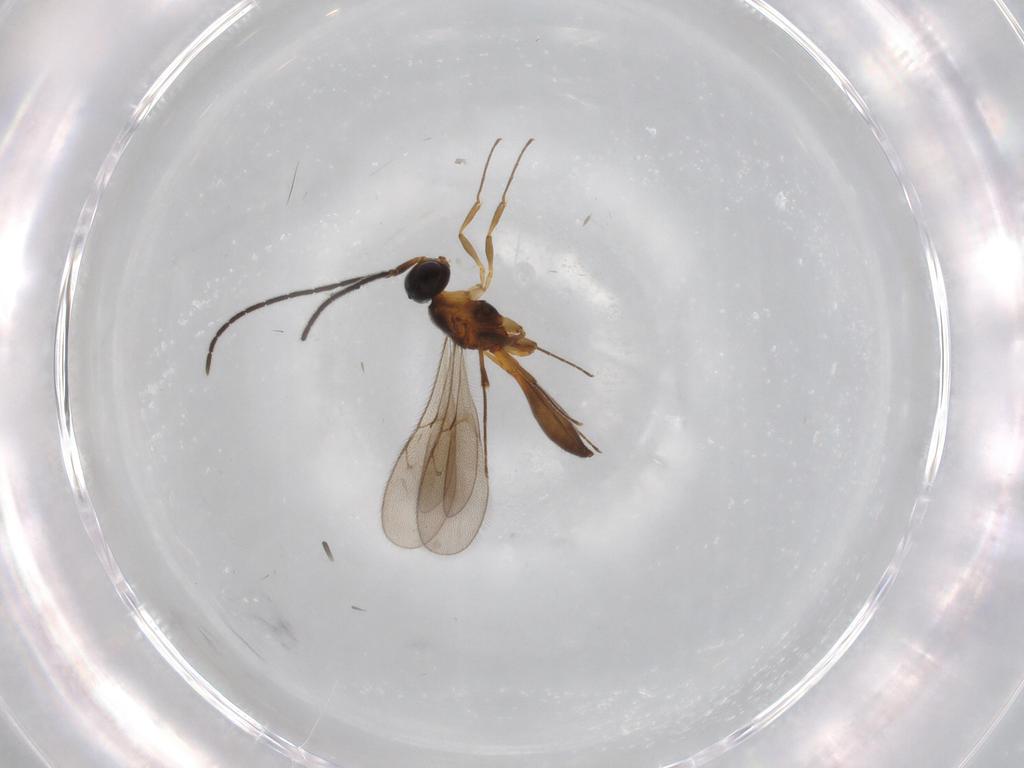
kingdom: Animalia
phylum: Arthropoda
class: Insecta
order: Hymenoptera
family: Scelionidae
